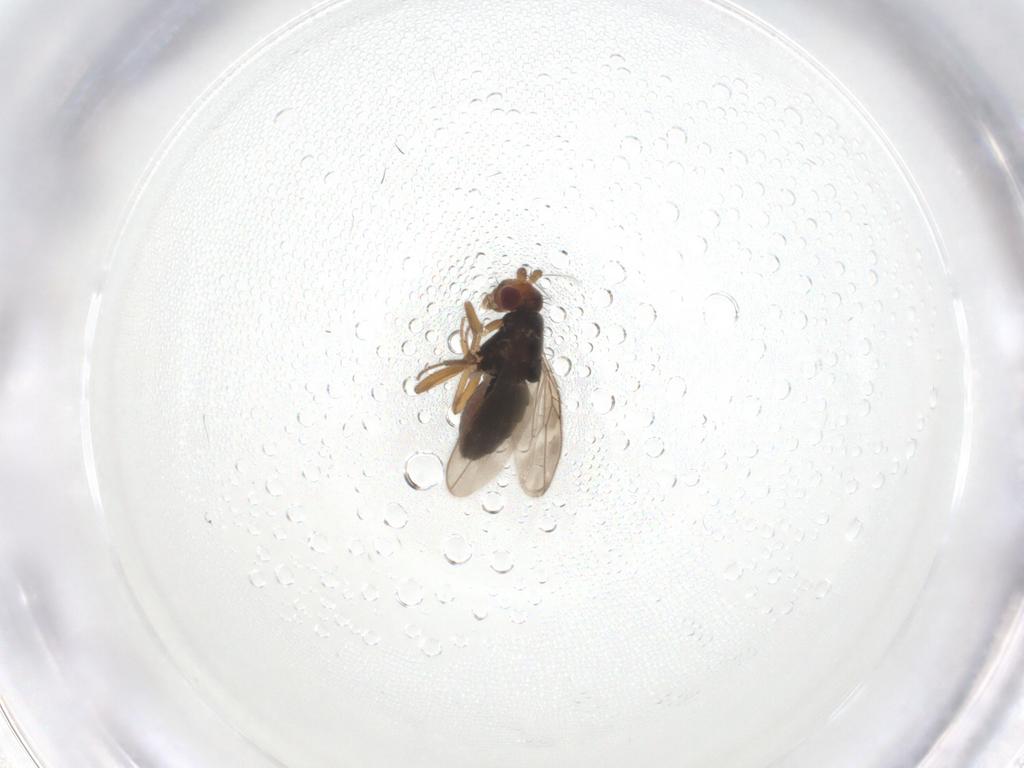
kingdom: Animalia
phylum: Arthropoda
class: Insecta
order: Diptera
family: Sphaeroceridae
